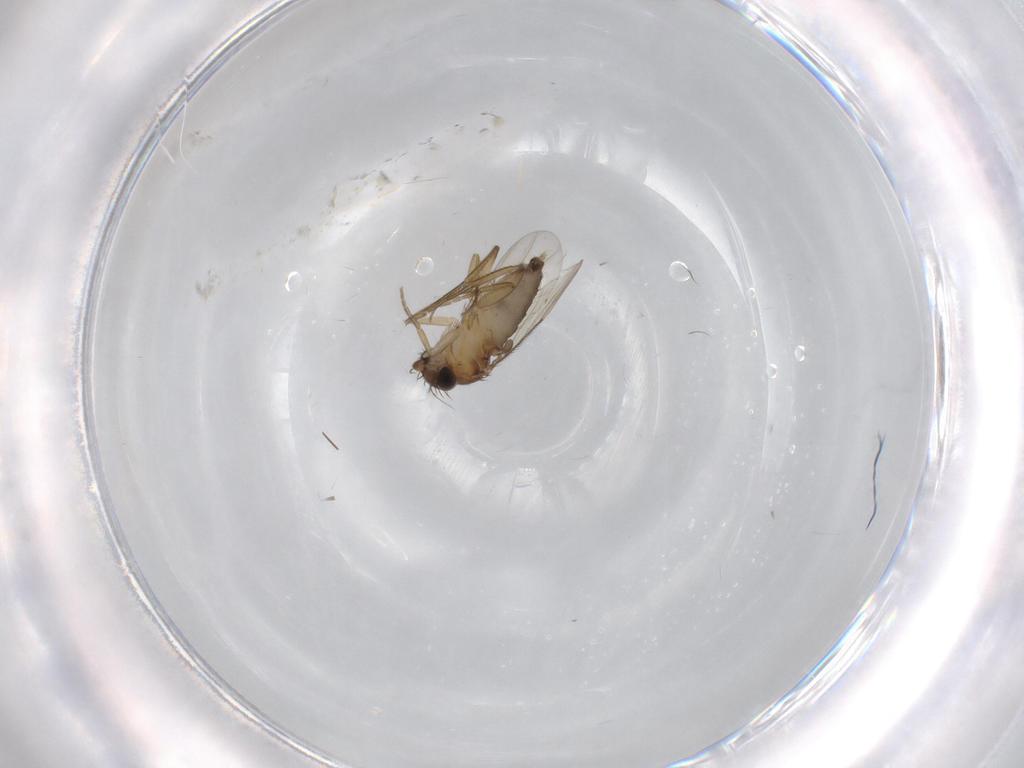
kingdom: Animalia
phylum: Arthropoda
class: Insecta
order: Diptera
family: Phoridae
